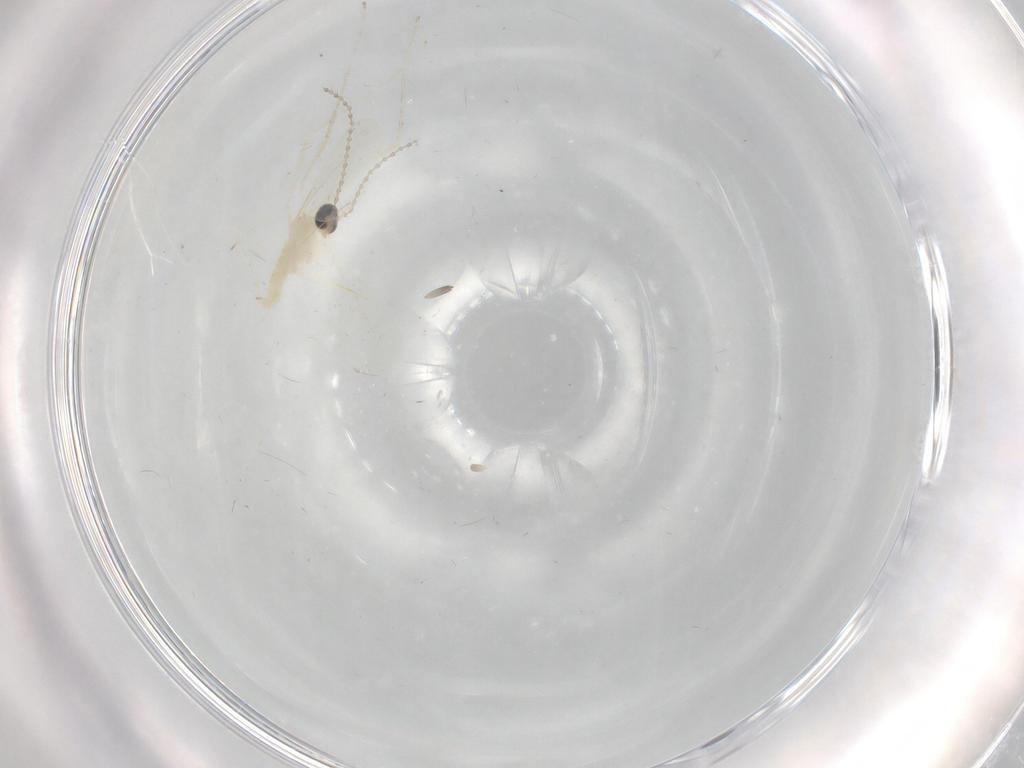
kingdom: Animalia
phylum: Arthropoda
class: Insecta
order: Diptera
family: Cecidomyiidae
